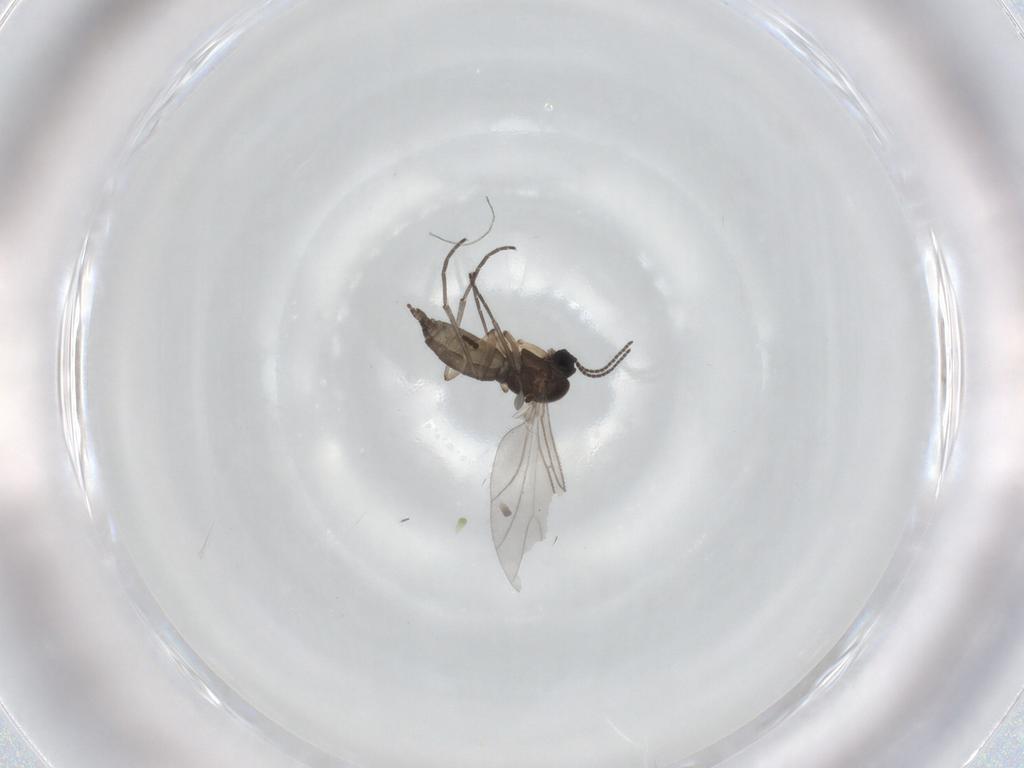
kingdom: Animalia
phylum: Arthropoda
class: Insecta
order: Diptera
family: Sciaridae
